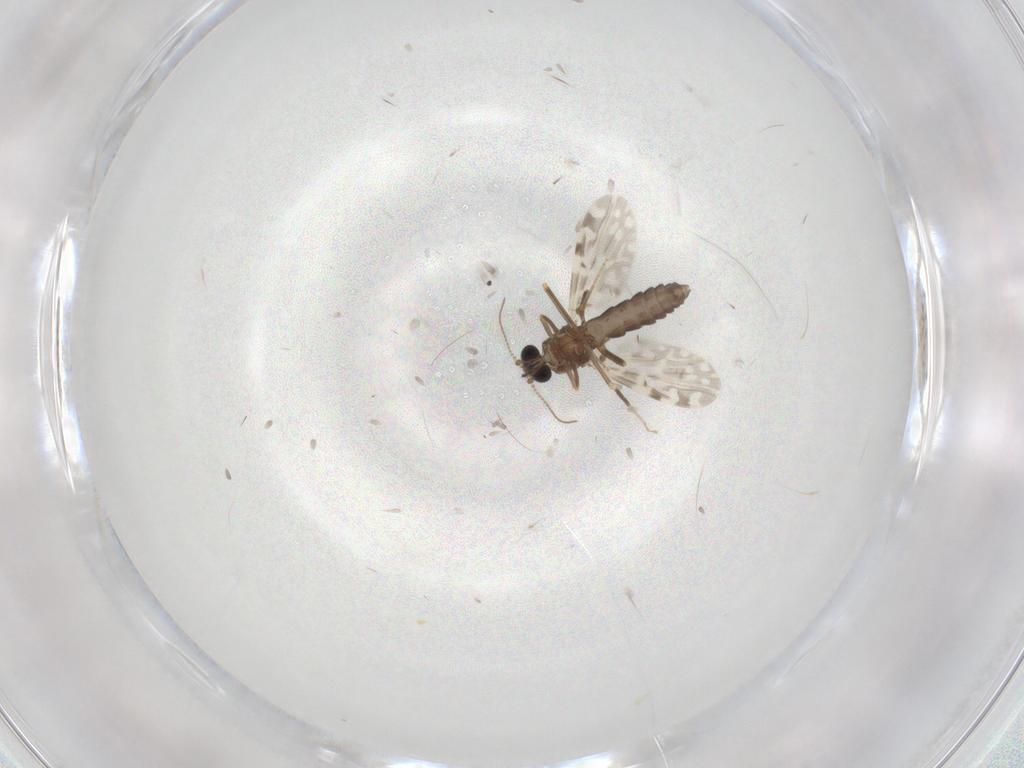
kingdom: Animalia
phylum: Arthropoda
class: Insecta
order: Diptera
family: Ceratopogonidae
